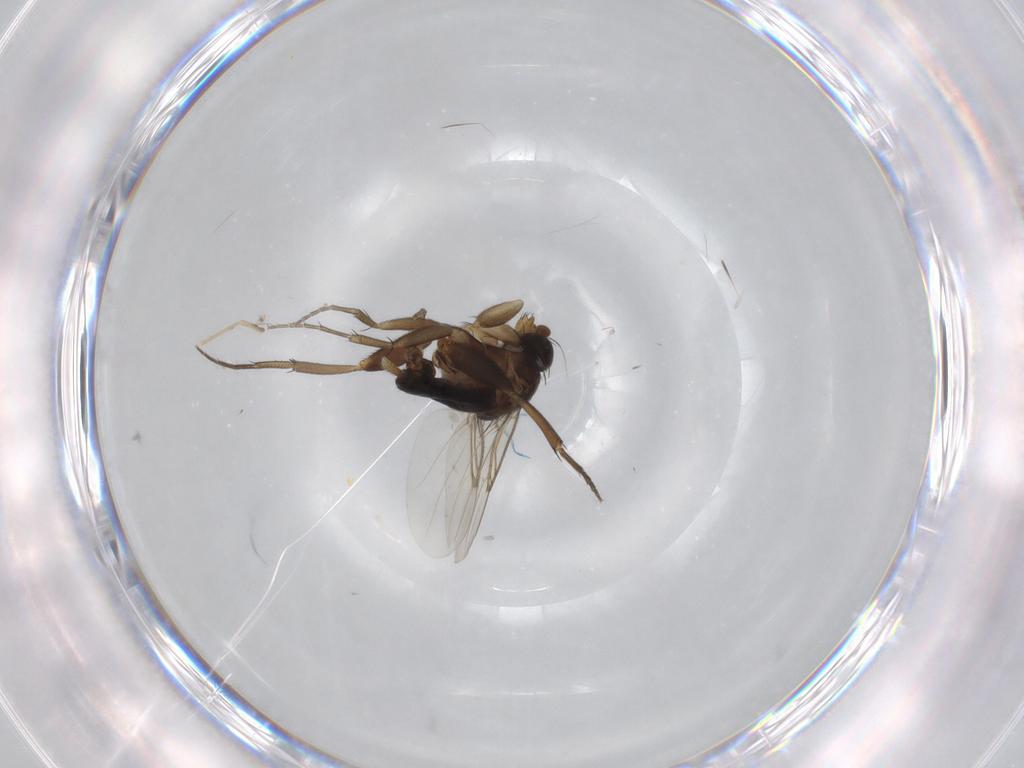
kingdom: Animalia
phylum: Arthropoda
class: Insecta
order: Diptera
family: Phoridae
